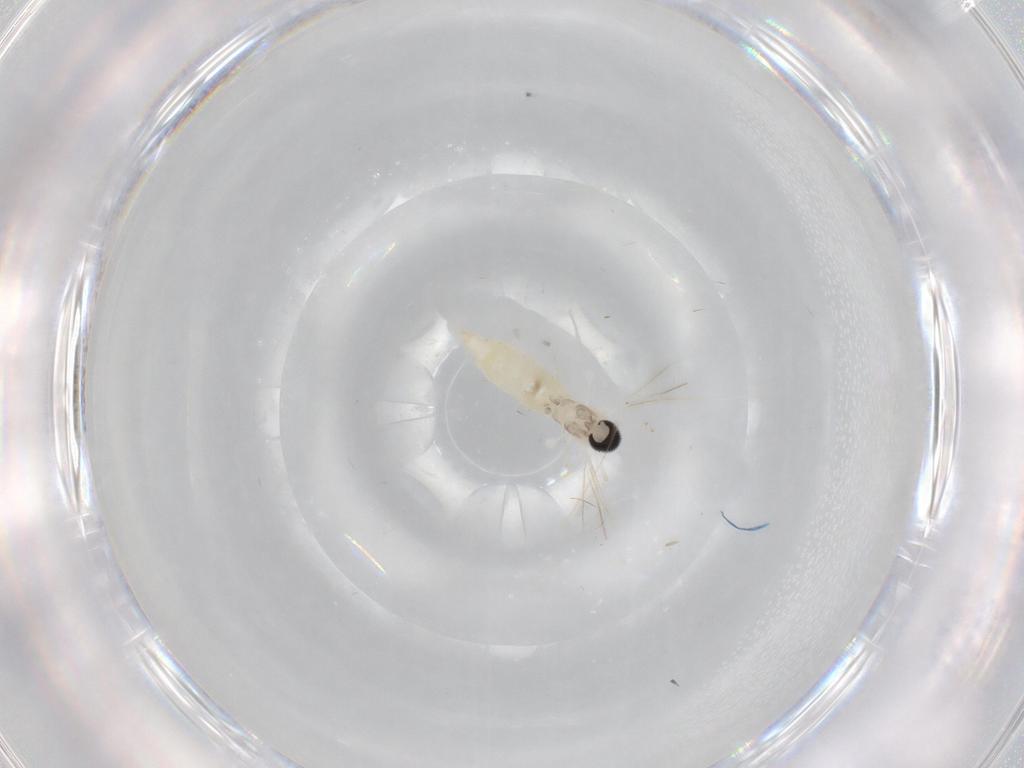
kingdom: Animalia
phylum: Arthropoda
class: Insecta
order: Diptera
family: Cecidomyiidae
